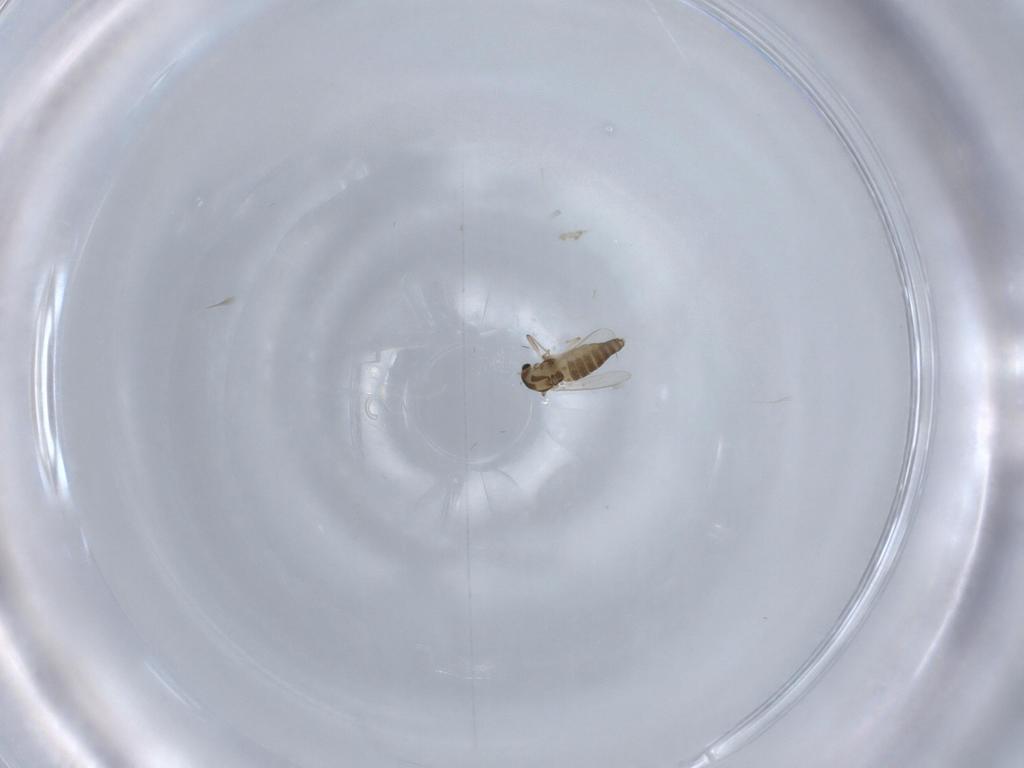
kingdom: Animalia
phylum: Arthropoda
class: Insecta
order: Diptera
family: Chironomidae
